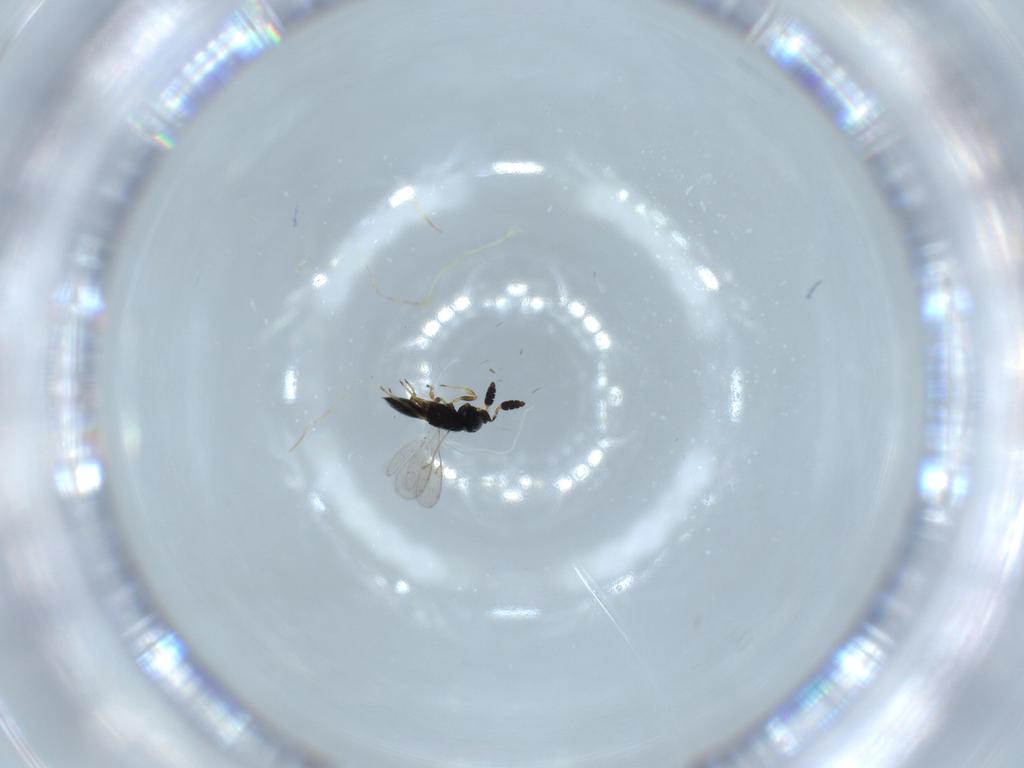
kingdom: Animalia
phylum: Arthropoda
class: Insecta
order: Hymenoptera
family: Scelionidae
